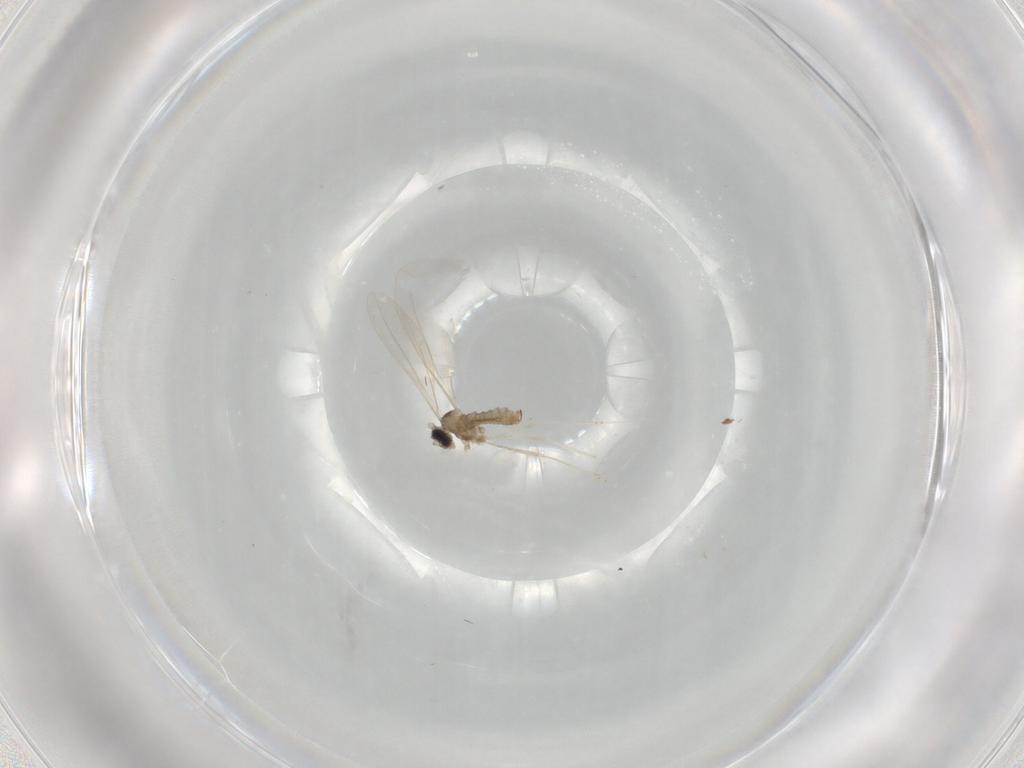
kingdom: Animalia
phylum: Arthropoda
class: Insecta
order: Diptera
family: Cecidomyiidae
